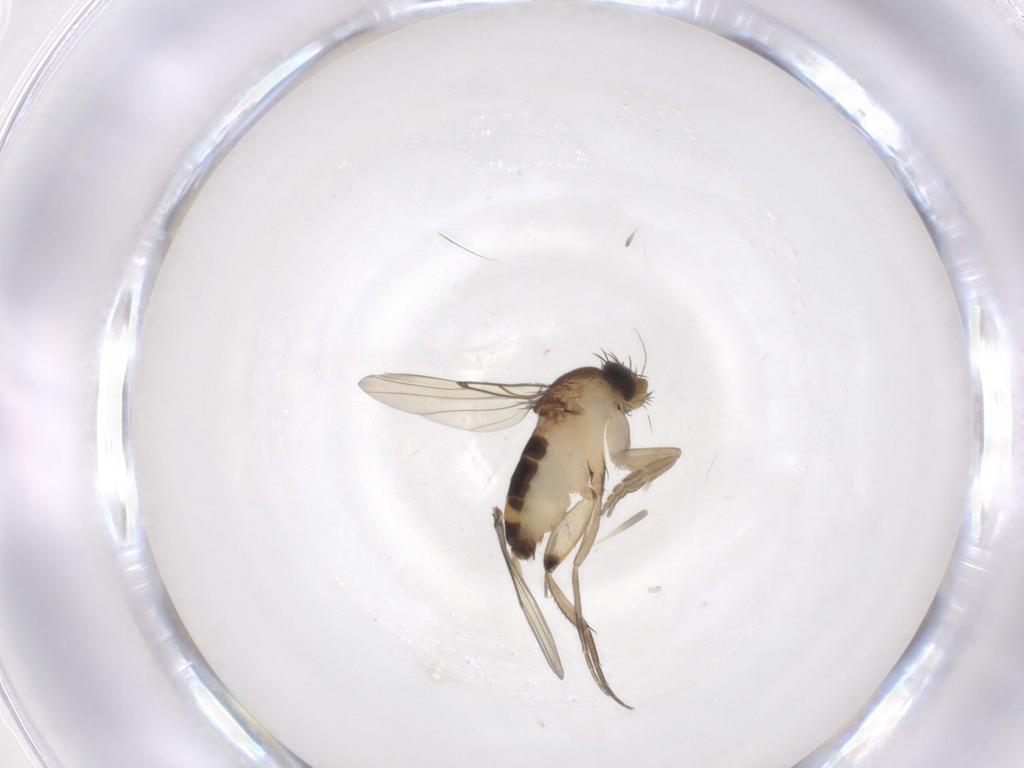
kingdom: Animalia
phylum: Arthropoda
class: Insecta
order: Diptera
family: Phoridae
